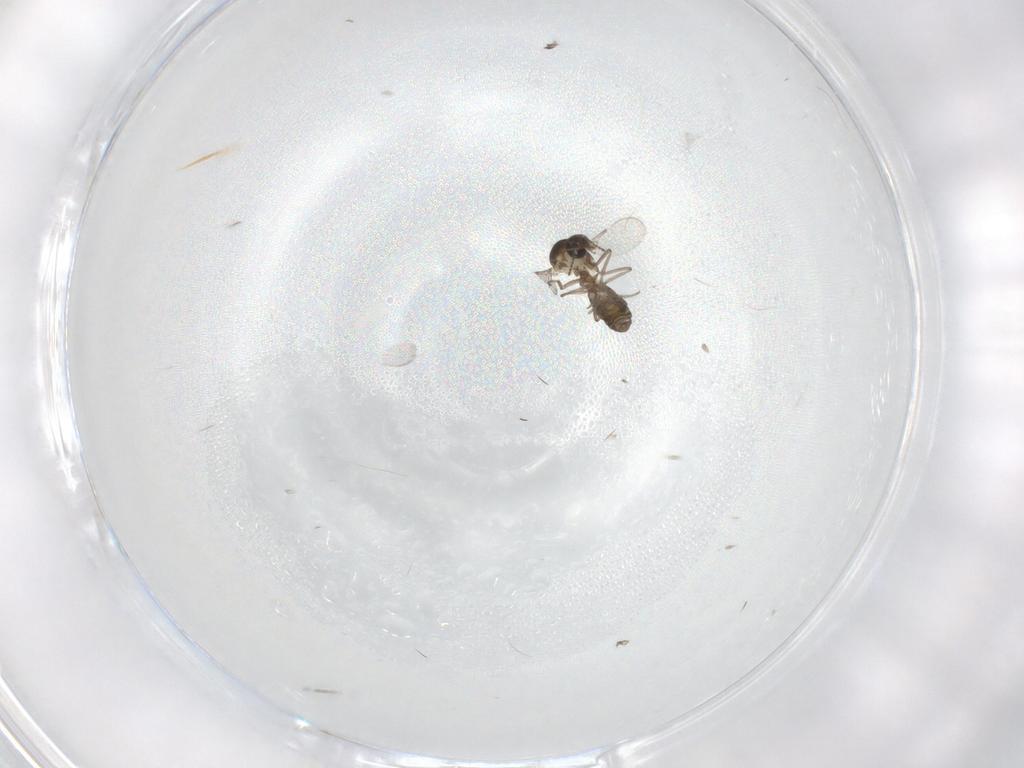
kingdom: Animalia
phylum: Arthropoda
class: Insecta
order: Diptera
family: Ceratopogonidae
